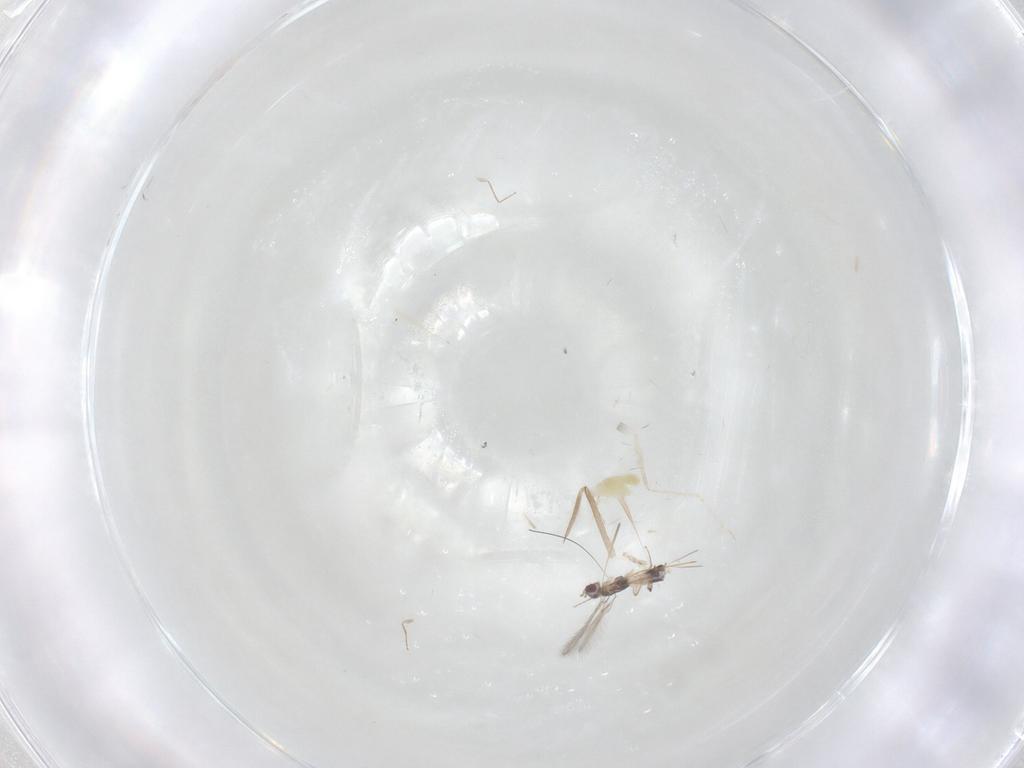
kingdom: Animalia
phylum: Arthropoda
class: Insecta
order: Hymenoptera
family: Mymaridae
